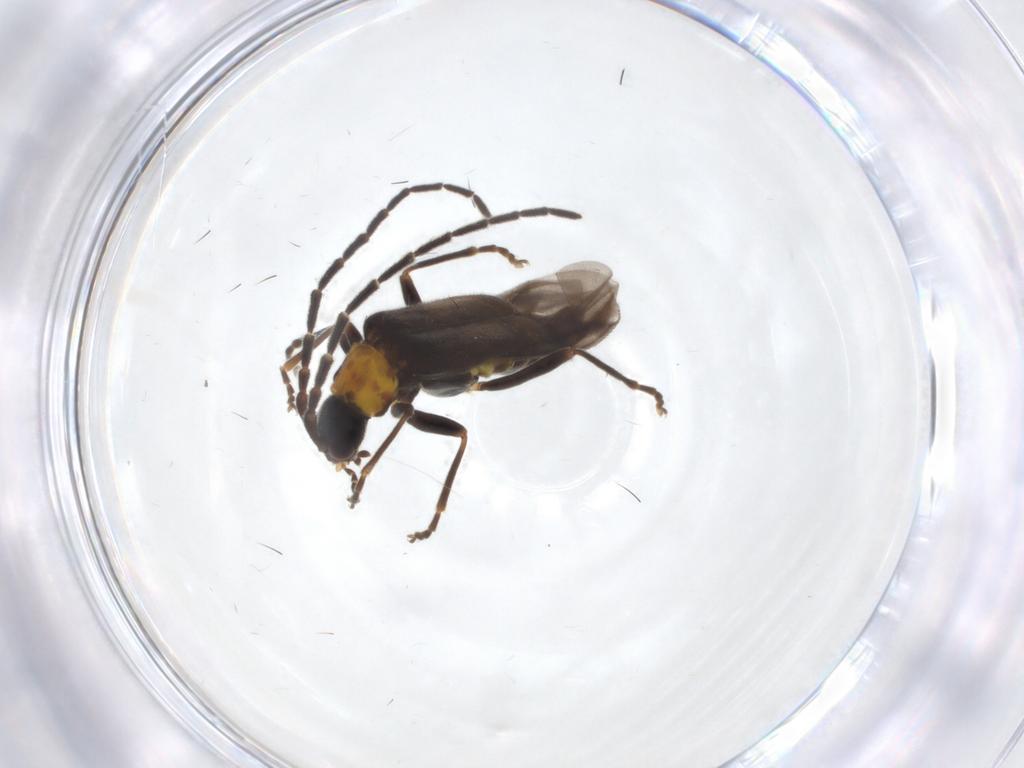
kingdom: Animalia
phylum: Arthropoda
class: Insecta
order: Coleoptera
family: Cantharidae
